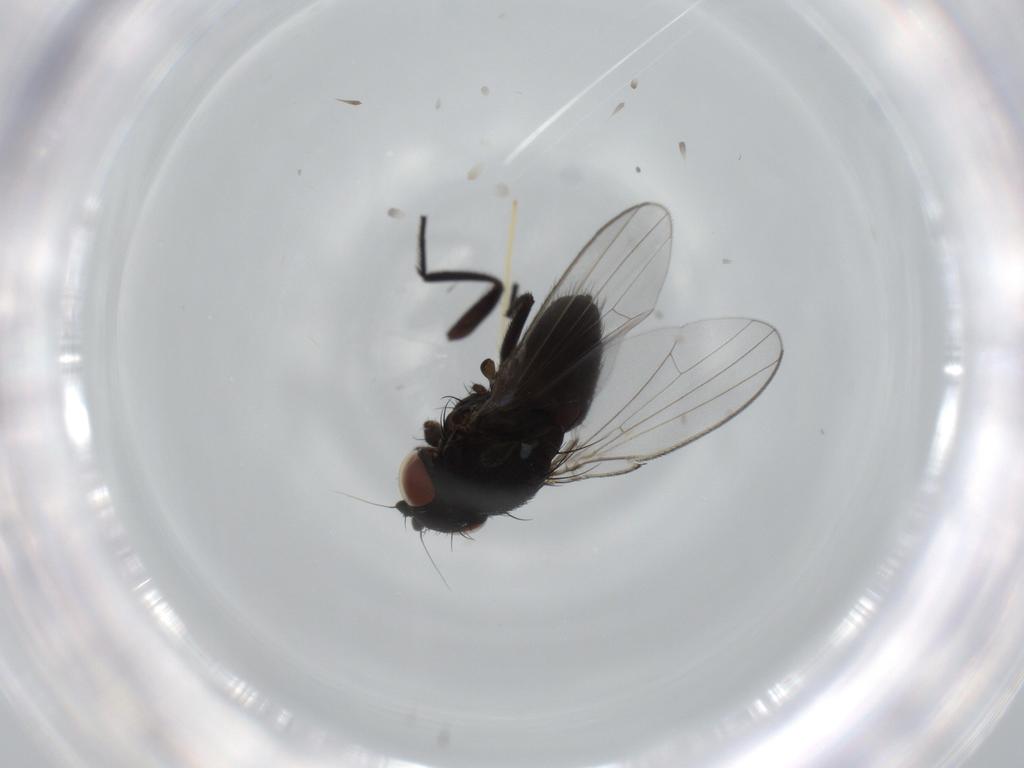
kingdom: Animalia
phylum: Arthropoda
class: Insecta
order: Diptera
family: Milichiidae
